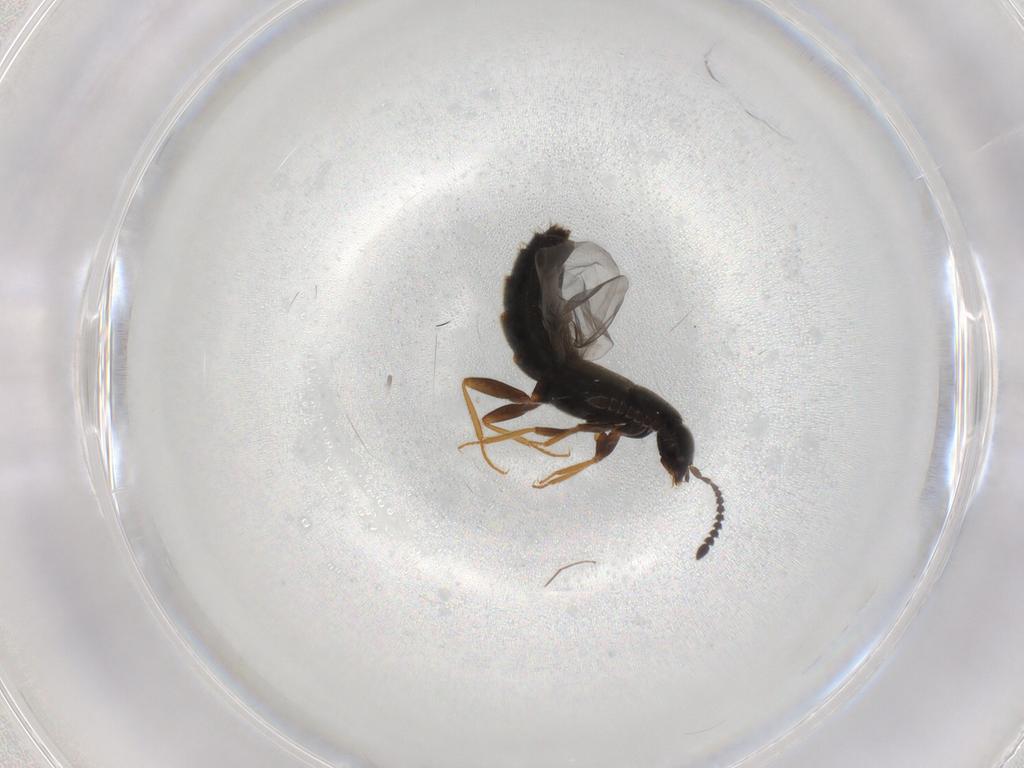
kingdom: Animalia
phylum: Arthropoda
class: Insecta
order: Coleoptera
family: Staphylinidae
